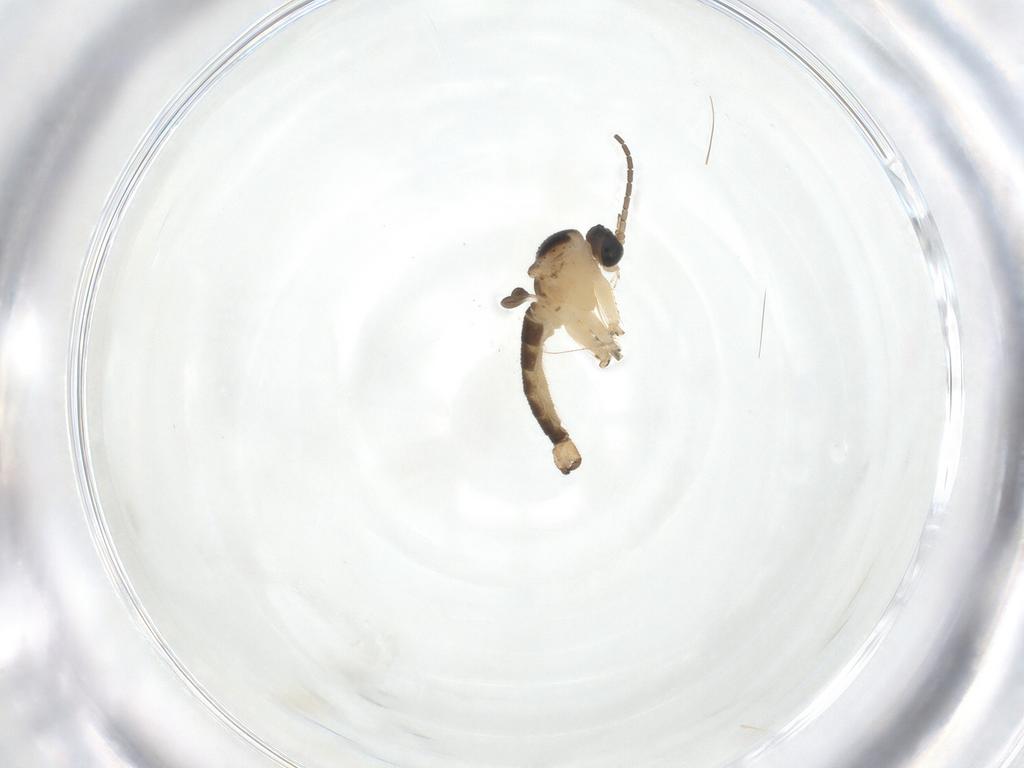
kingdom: Animalia
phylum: Arthropoda
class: Insecta
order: Diptera
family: Sciaridae
